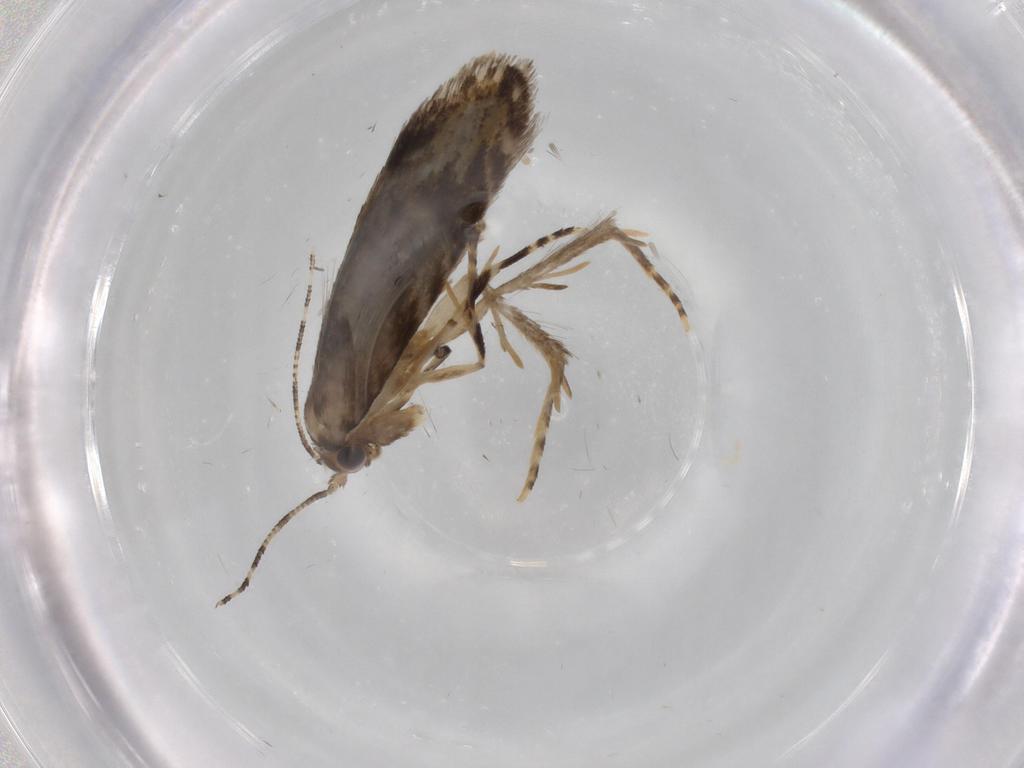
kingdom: Animalia
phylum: Arthropoda
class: Insecta
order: Lepidoptera
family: Tineidae
